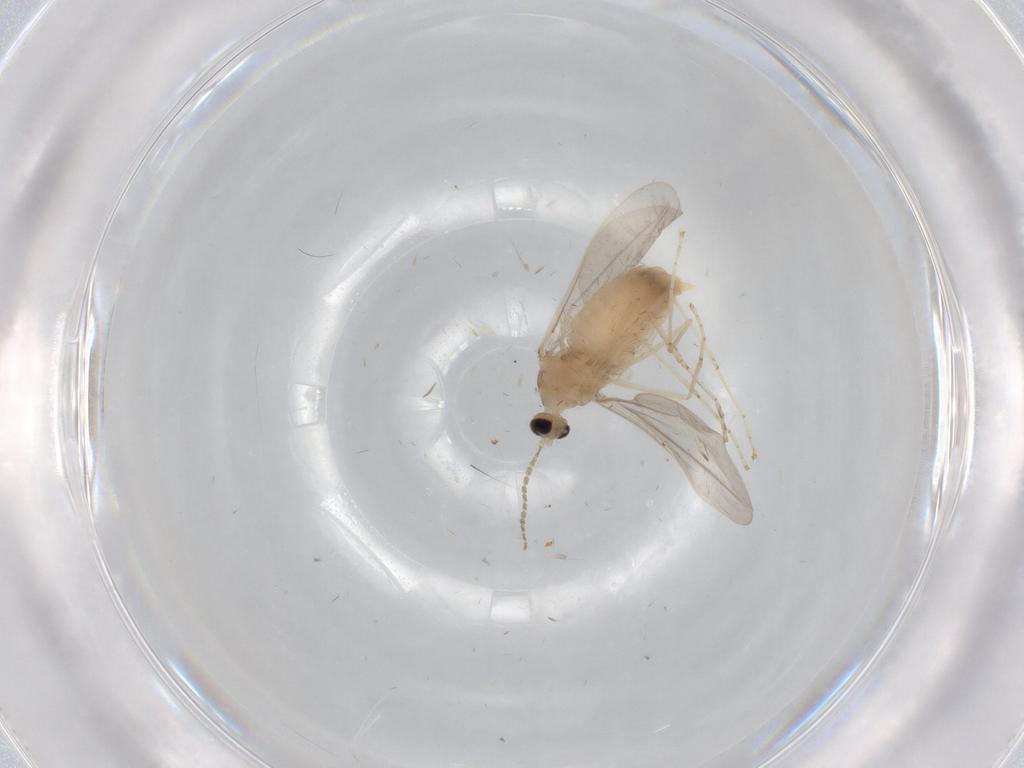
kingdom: Animalia
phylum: Arthropoda
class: Insecta
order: Diptera
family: Cecidomyiidae
